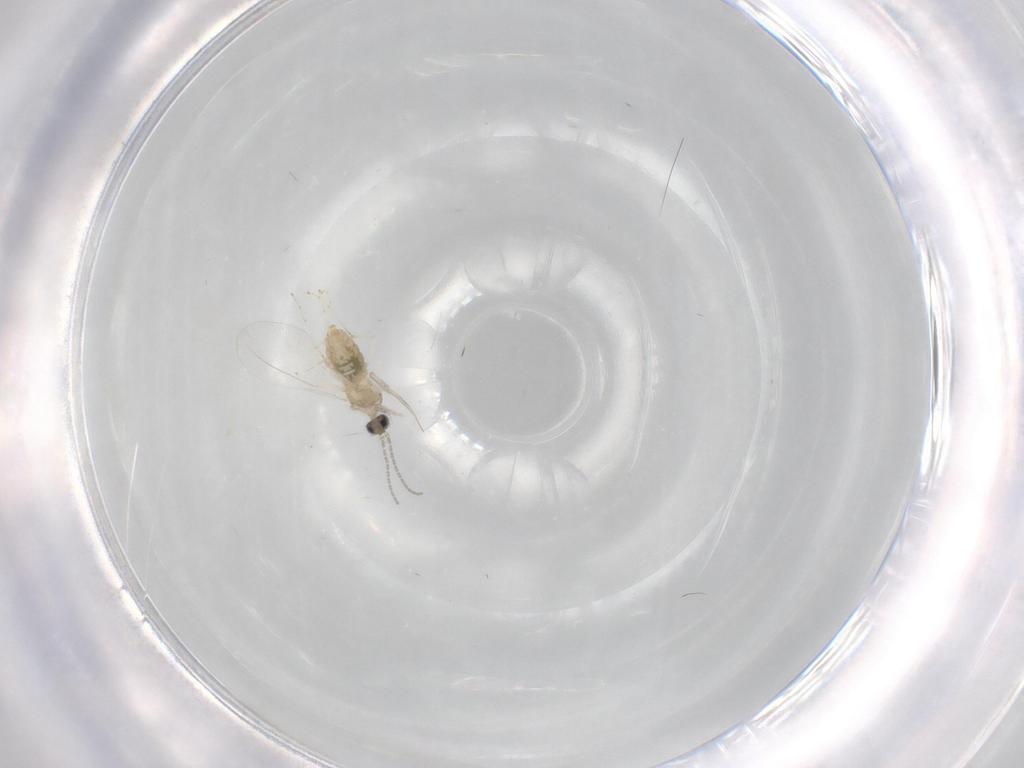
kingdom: Animalia
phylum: Arthropoda
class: Insecta
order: Diptera
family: Cecidomyiidae
